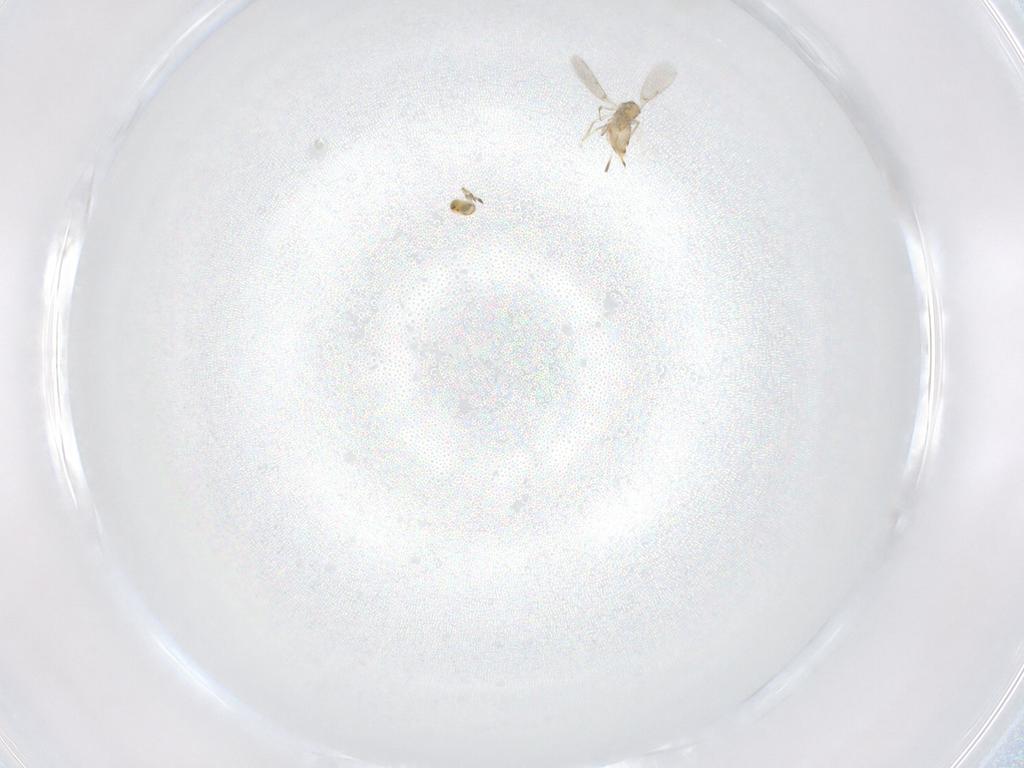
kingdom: Animalia
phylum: Arthropoda
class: Insecta
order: Hymenoptera
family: Aphelinidae
